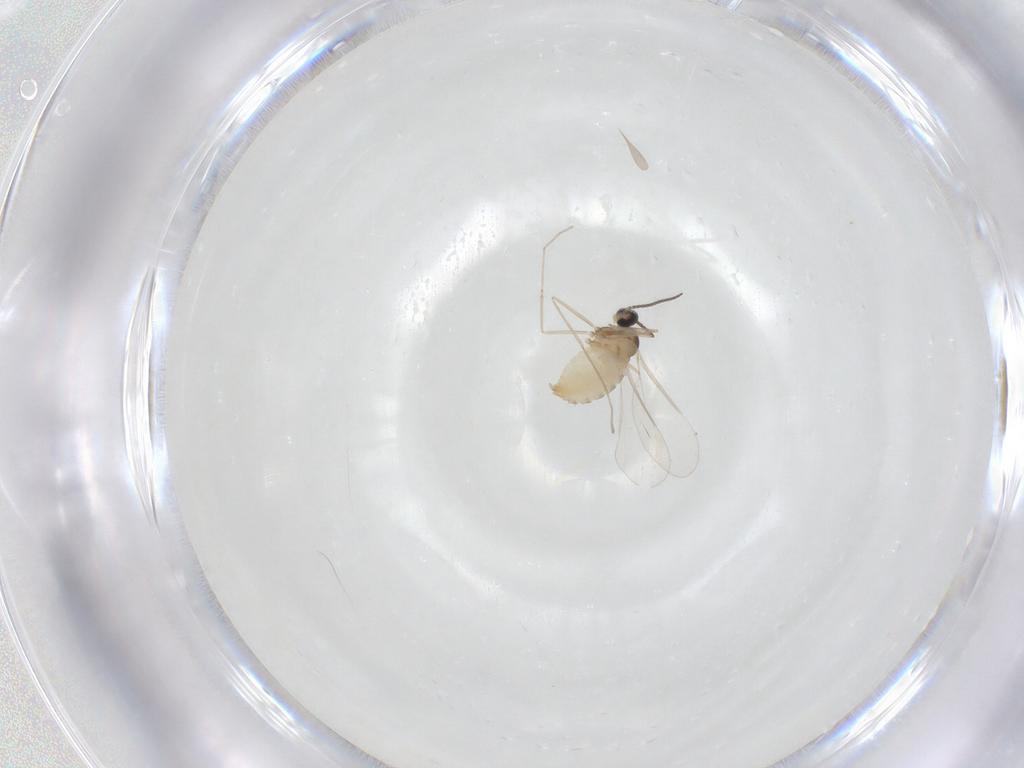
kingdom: Animalia
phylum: Arthropoda
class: Insecta
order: Diptera
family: Cecidomyiidae
